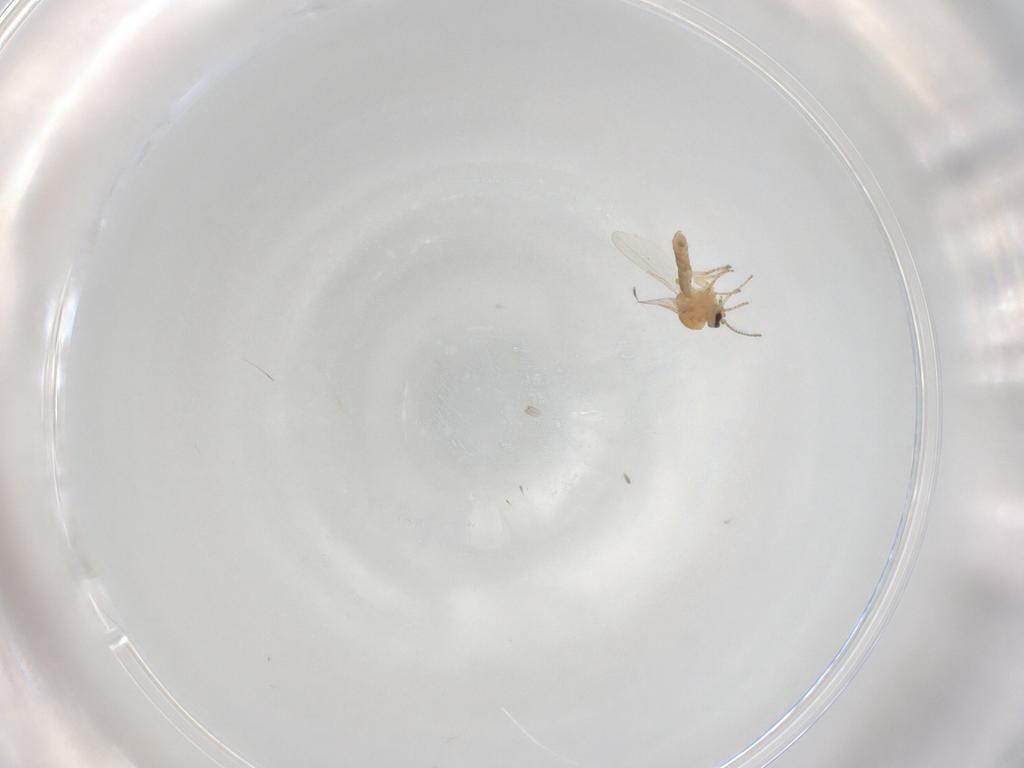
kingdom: Animalia
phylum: Arthropoda
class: Insecta
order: Diptera
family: Ceratopogonidae
